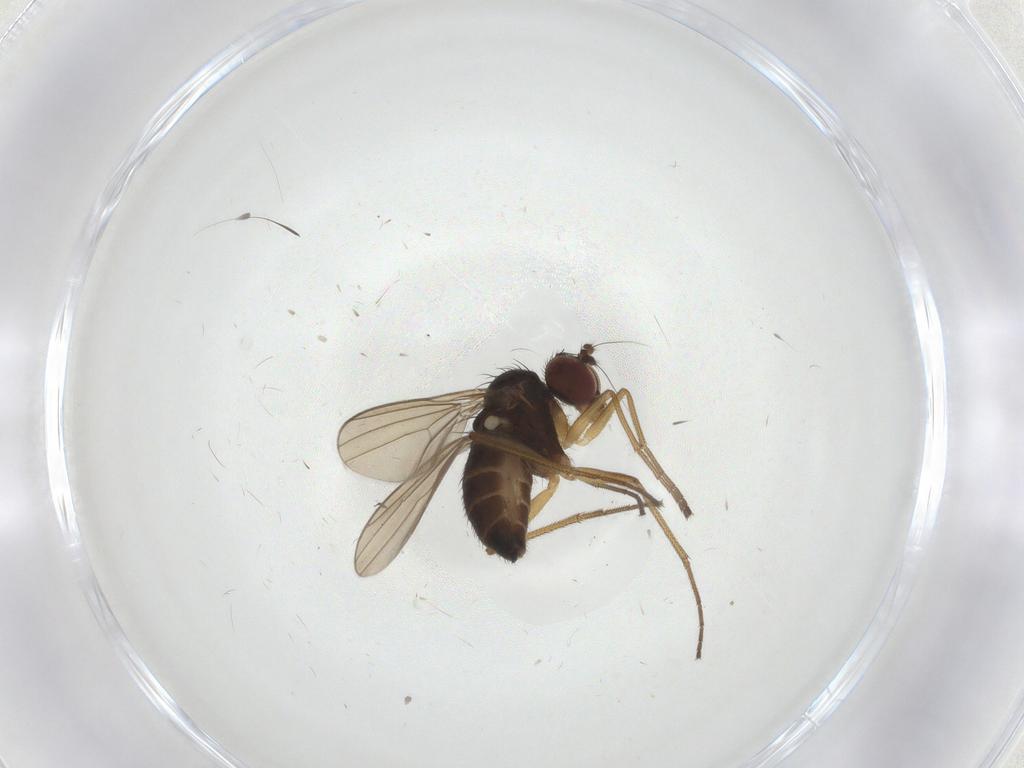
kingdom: Animalia
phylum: Arthropoda
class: Insecta
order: Diptera
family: Dolichopodidae
